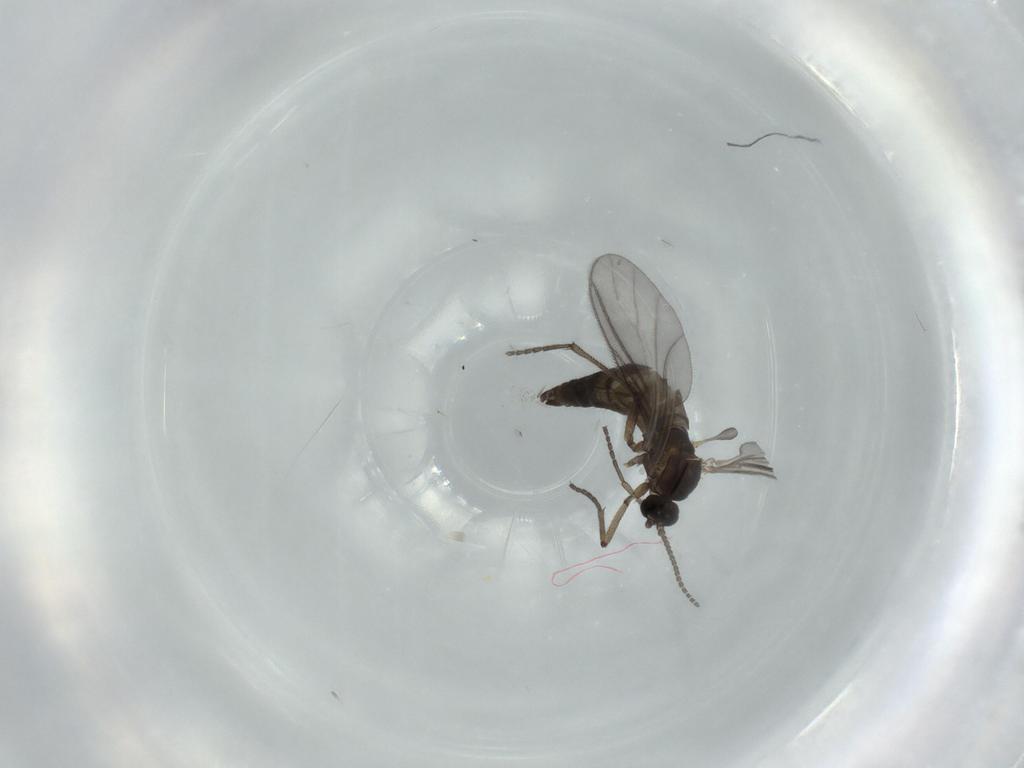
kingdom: Animalia
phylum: Arthropoda
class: Insecta
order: Diptera
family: Sciaridae
